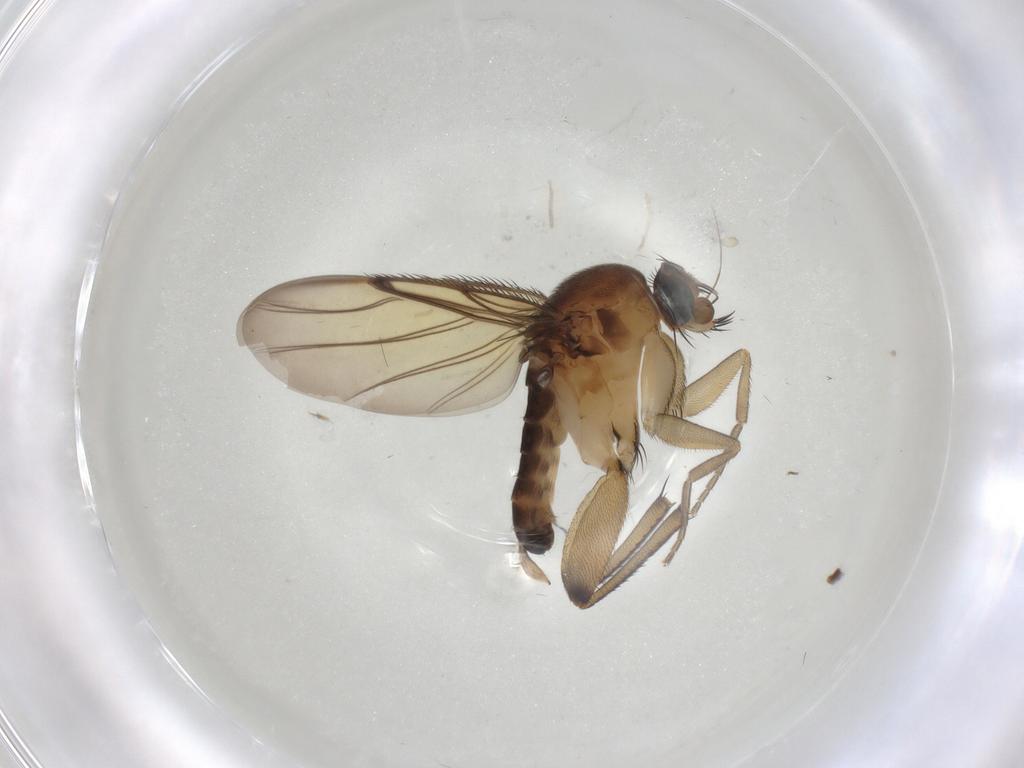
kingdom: Animalia
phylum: Arthropoda
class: Insecta
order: Diptera
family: Phoridae
